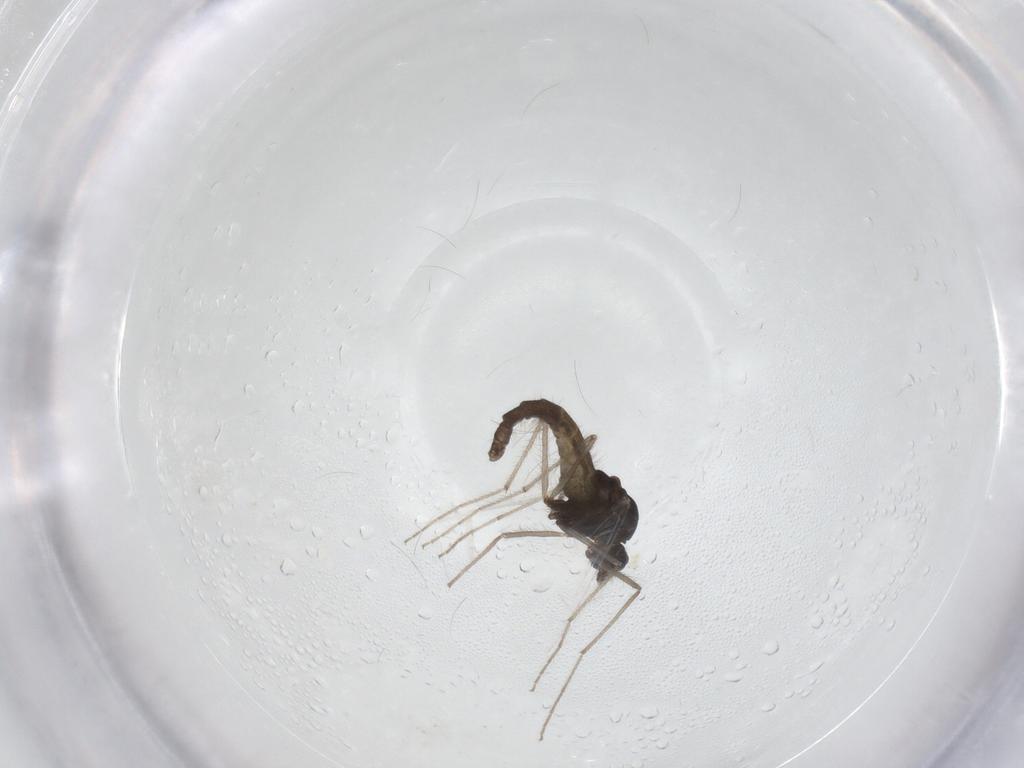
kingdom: Animalia
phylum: Arthropoda
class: Insecta
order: Diptera
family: Chironomidae
